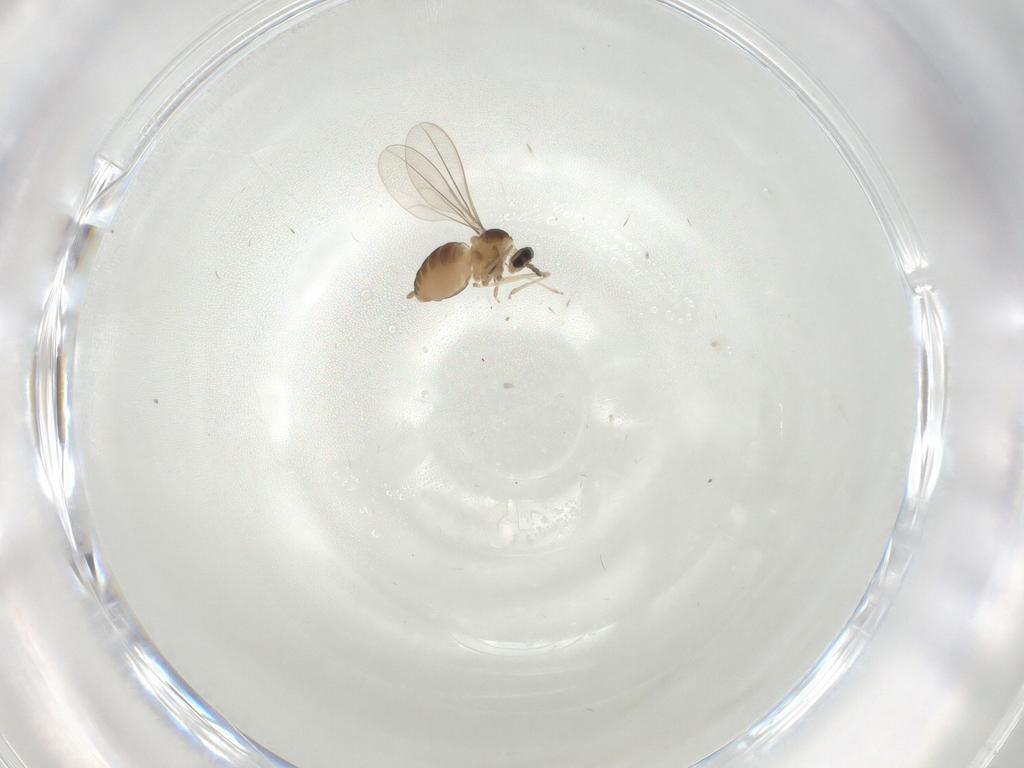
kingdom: Animalia
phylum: Arthropoda
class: Insecta
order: Diptera
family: Cecidomyiidae
